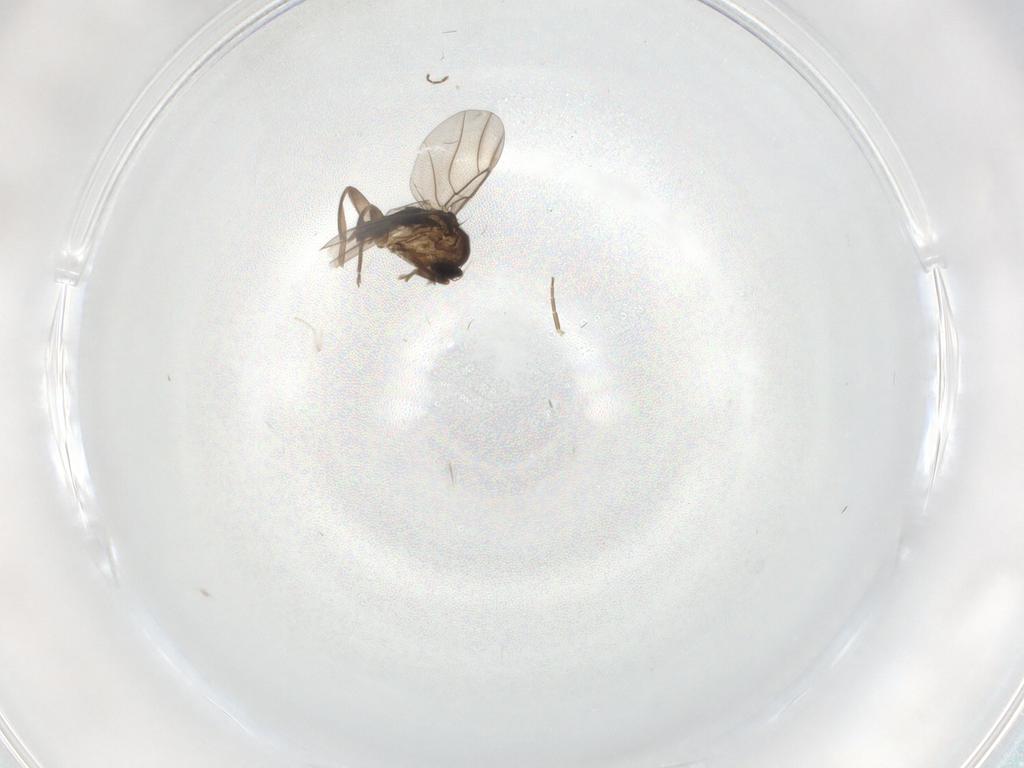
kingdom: Animalia
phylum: Arthropoda
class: Insecta
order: Diptera
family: Phoridae
